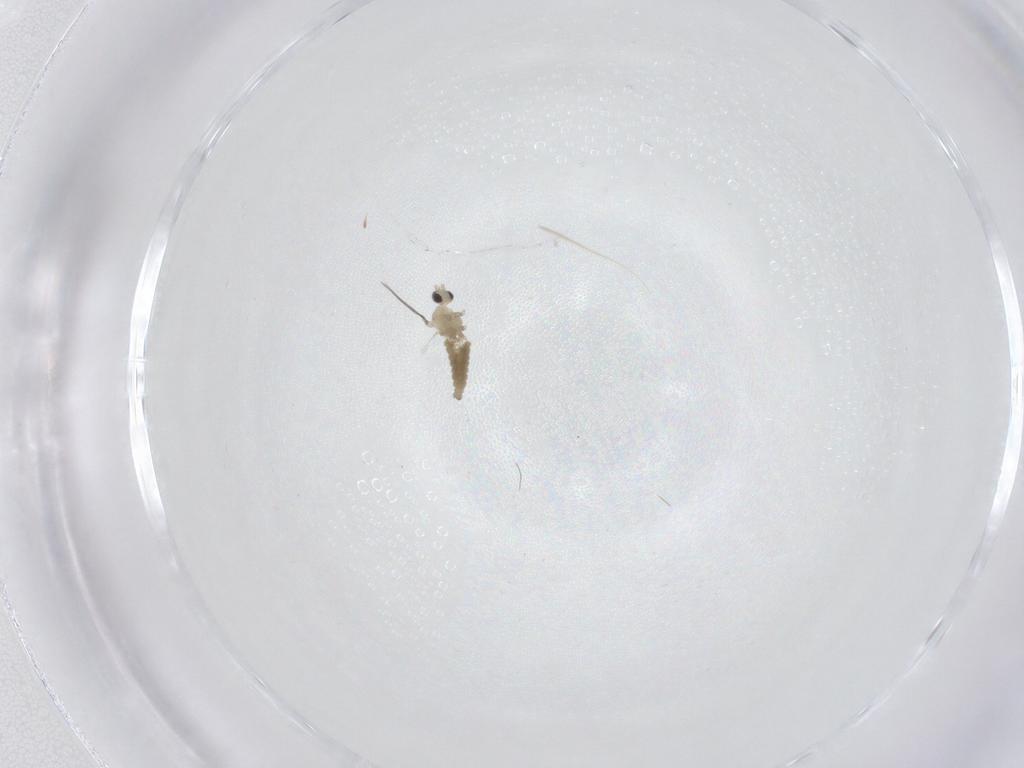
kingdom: Animalia
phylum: Arthropoda
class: Insecta
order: Diptera
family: Cecidomyiidae
